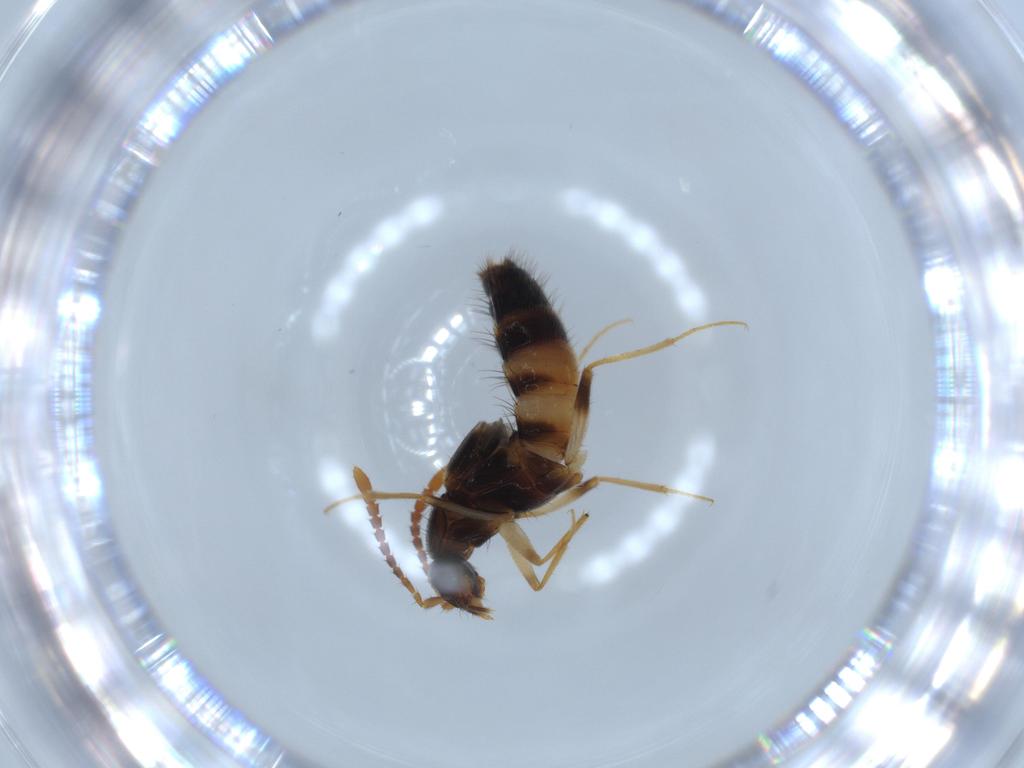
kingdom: Animalia
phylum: Arthropoda
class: Insecta
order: Coleoptera
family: Staphylinidae
